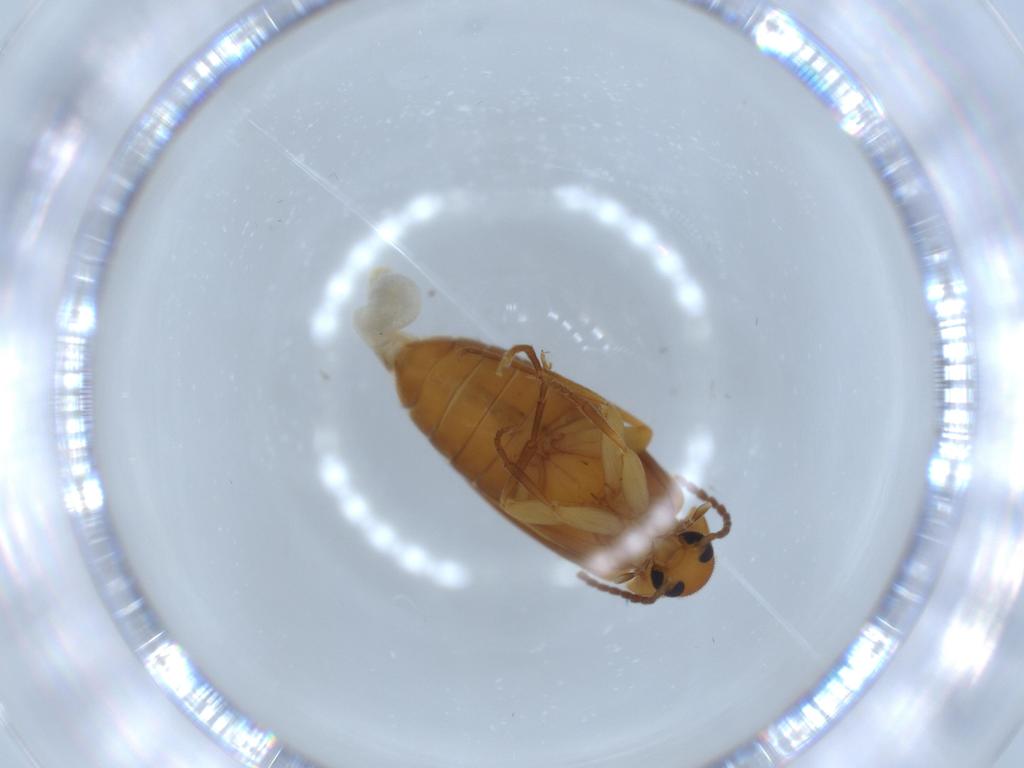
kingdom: Animalia
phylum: Arthropoda
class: Insecta
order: Coleoptera
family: Scraptiidae
